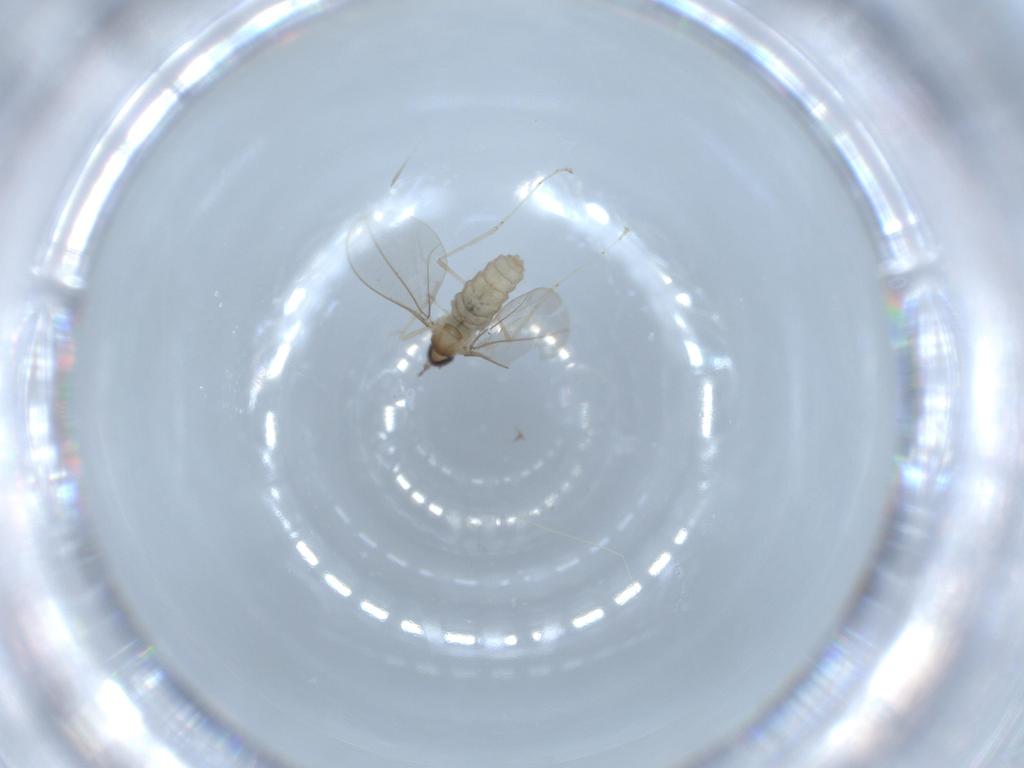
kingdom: Animalia
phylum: Arthropoda
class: Insecta
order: Diptera
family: Cecidomyiidae
